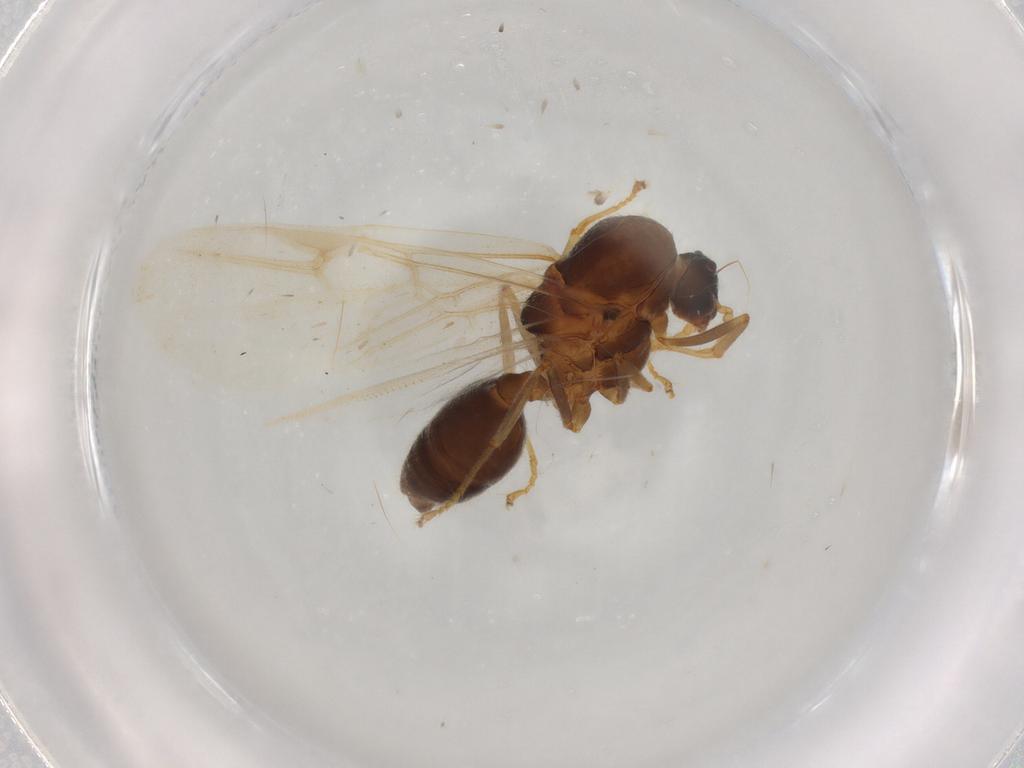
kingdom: Animalia
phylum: Arthropoda
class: Insecta
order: Hymenoptera
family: Formicidae
